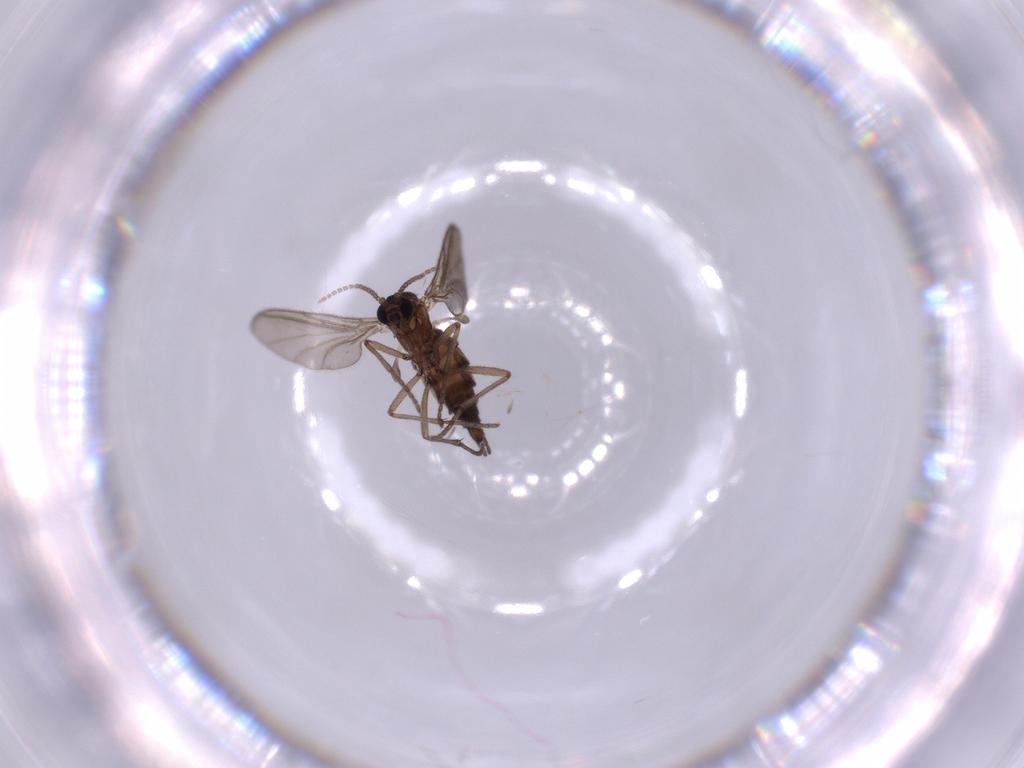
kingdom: Animalia
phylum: Arthropoda
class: Insecta
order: Diptera
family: Sciaridae
